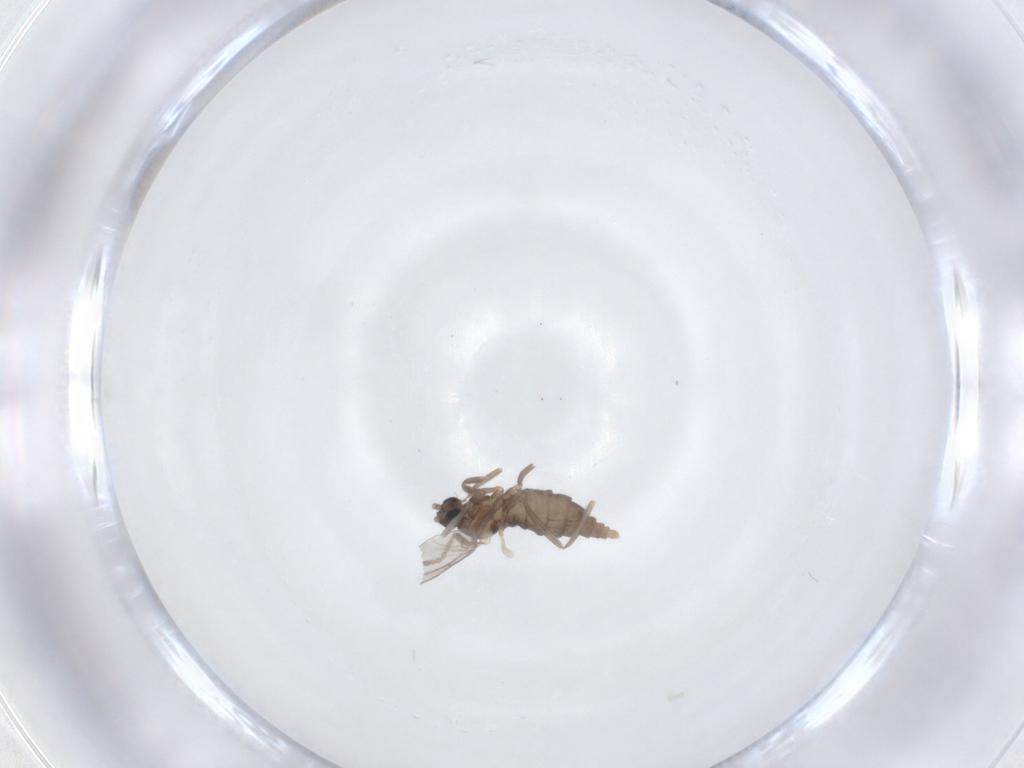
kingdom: Animalia
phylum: Arthropoda
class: Insecta
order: Diptera
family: Cecidomyiidae
